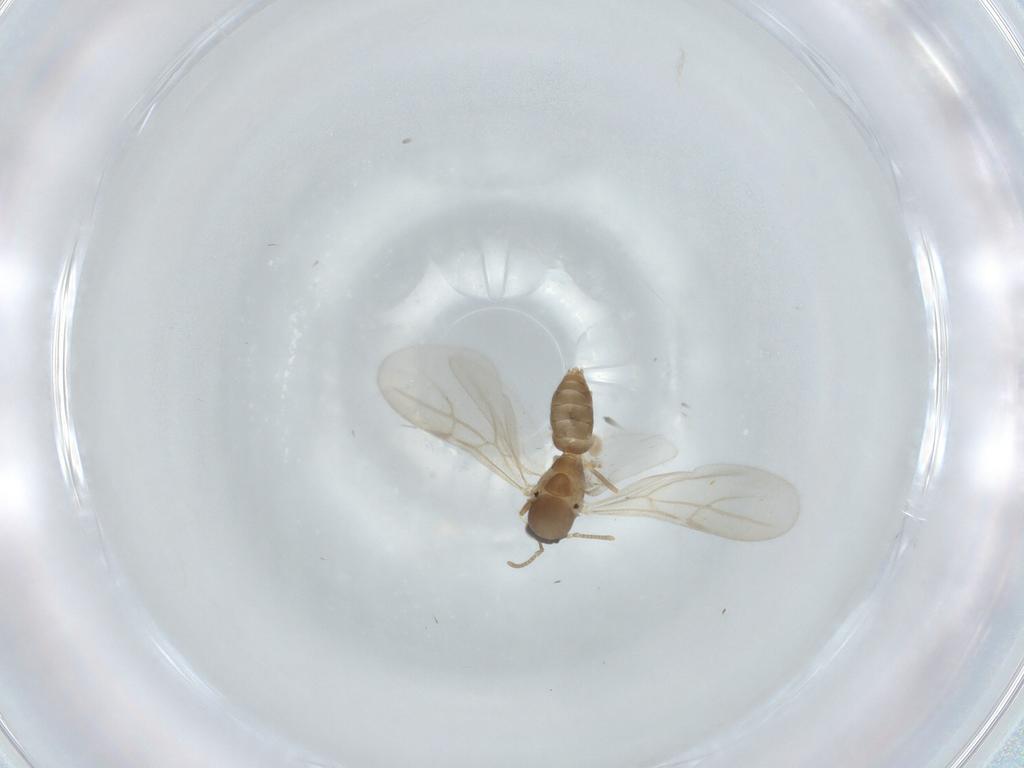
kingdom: Animalia
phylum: Arthropoda
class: Insecta
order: Hymenoptera
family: Formicidae
